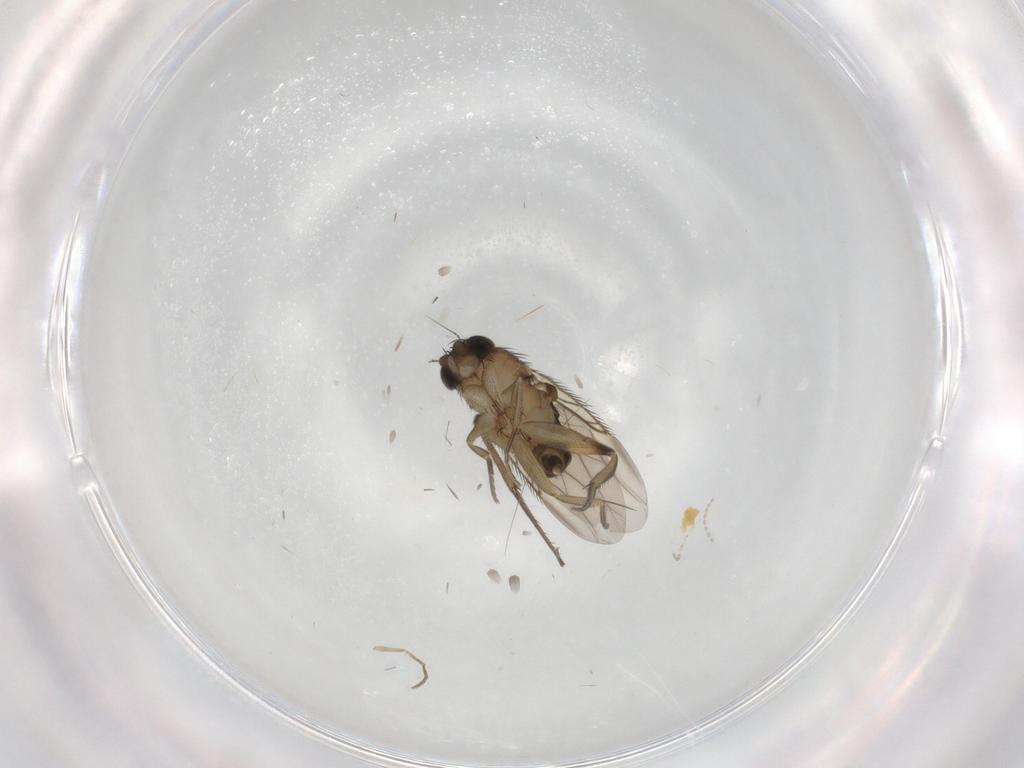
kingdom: Animalia
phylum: Arthropoda
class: Insecta
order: Diptera
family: Phoridae
